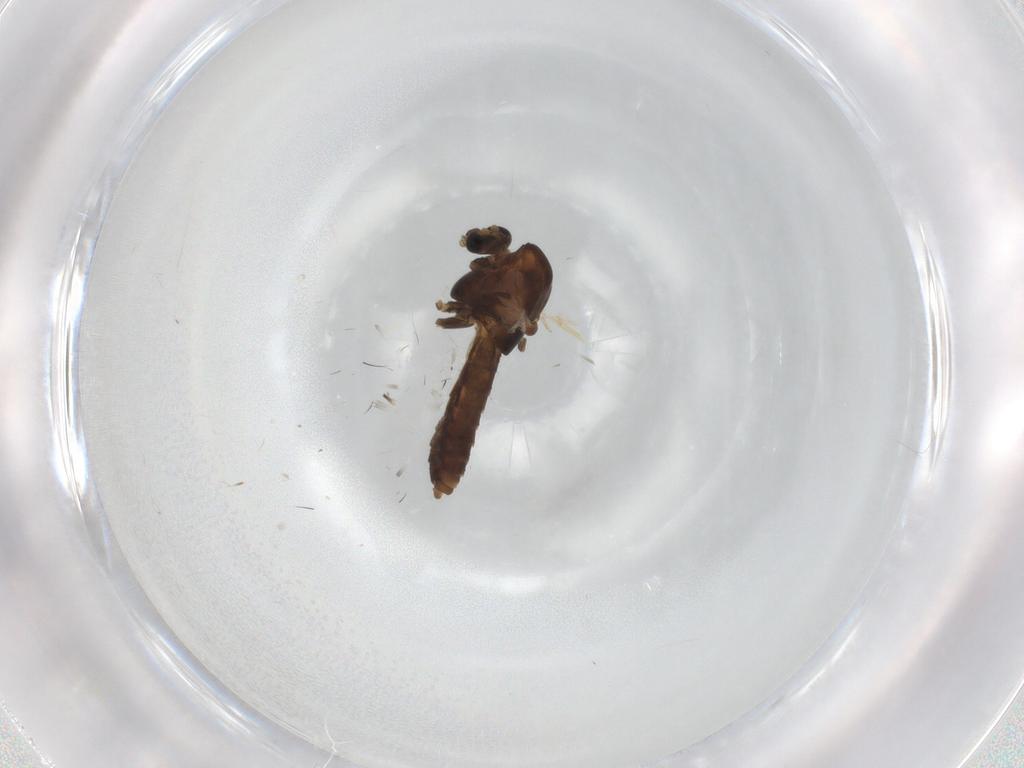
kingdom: Animalia
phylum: Arthropoda
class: Insecta
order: Diptera
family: Chironomidae
